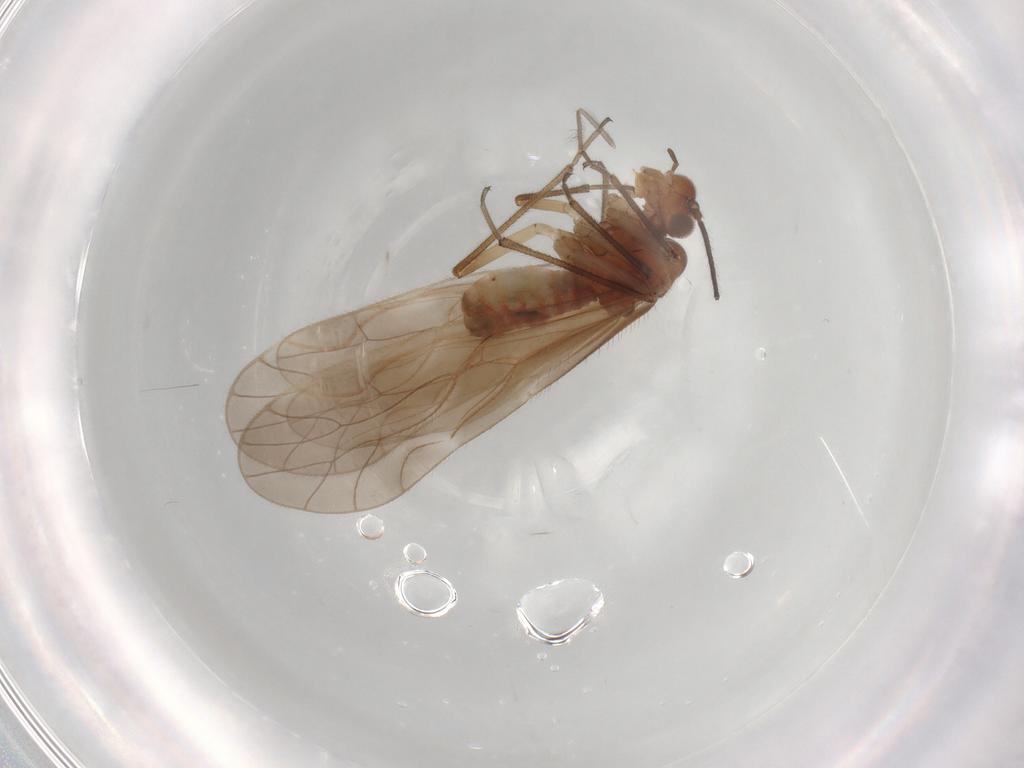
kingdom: Animalia
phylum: Arthropoda
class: Insecta
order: Psocodea
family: Caeciliusidae
